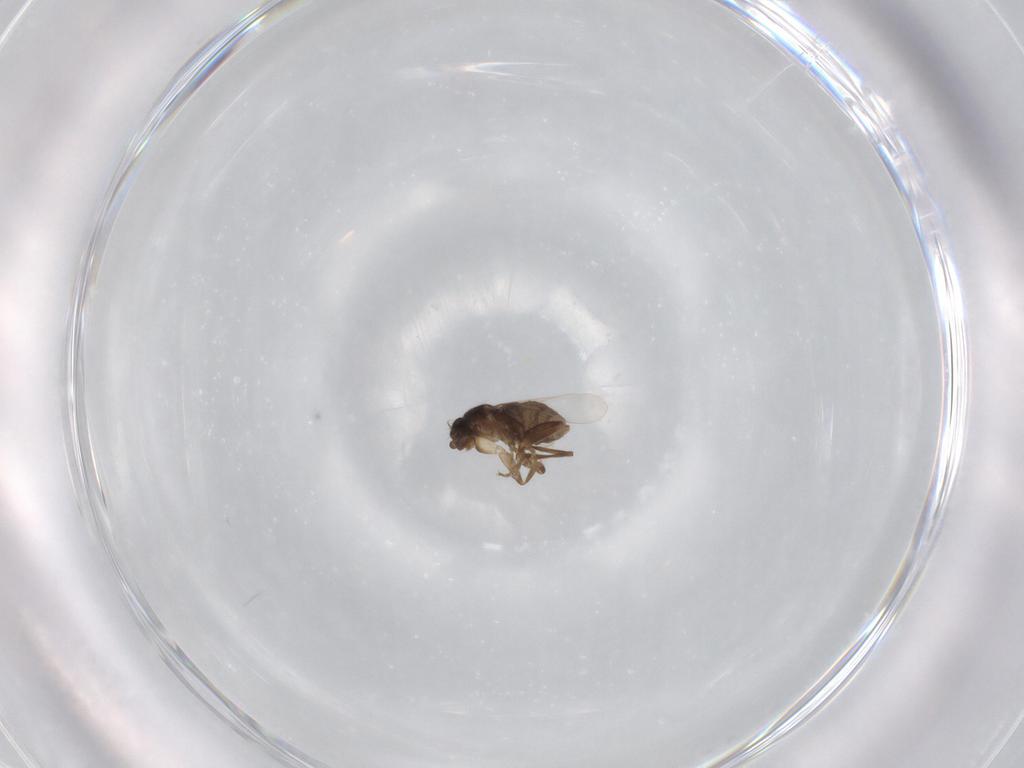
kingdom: Animalia
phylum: Arthropoda
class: Insecta
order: Diptera
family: Phoridae
